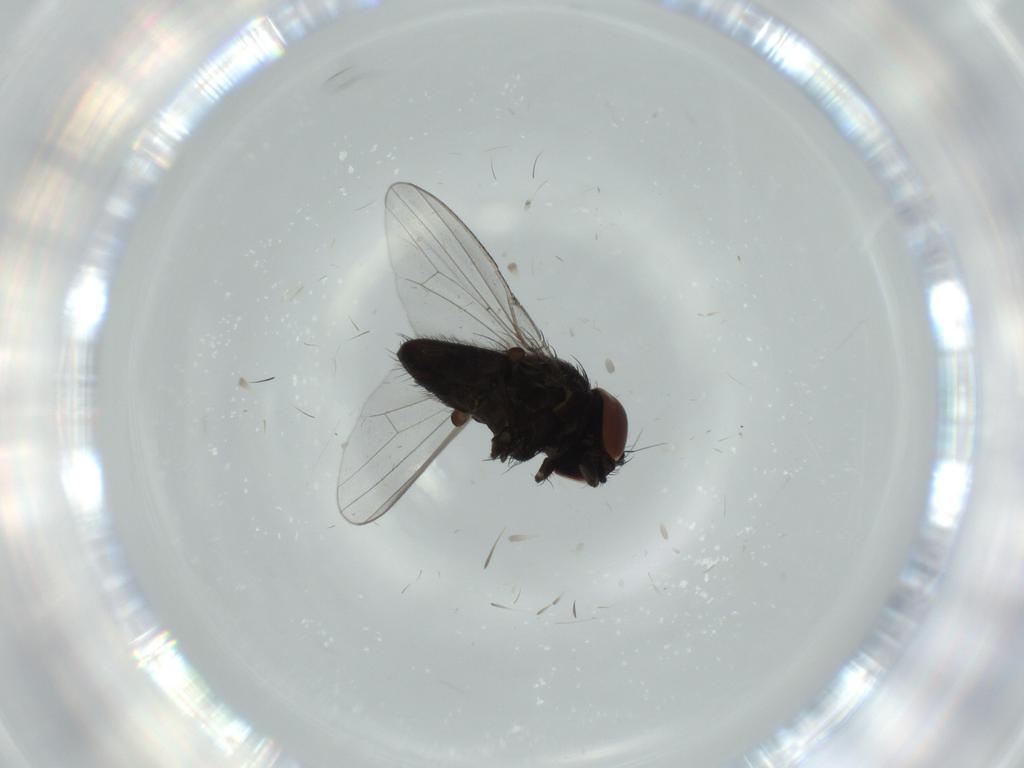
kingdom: Animalia
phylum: Arthropoda
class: Insecta
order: Diptera
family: Milichiidae
